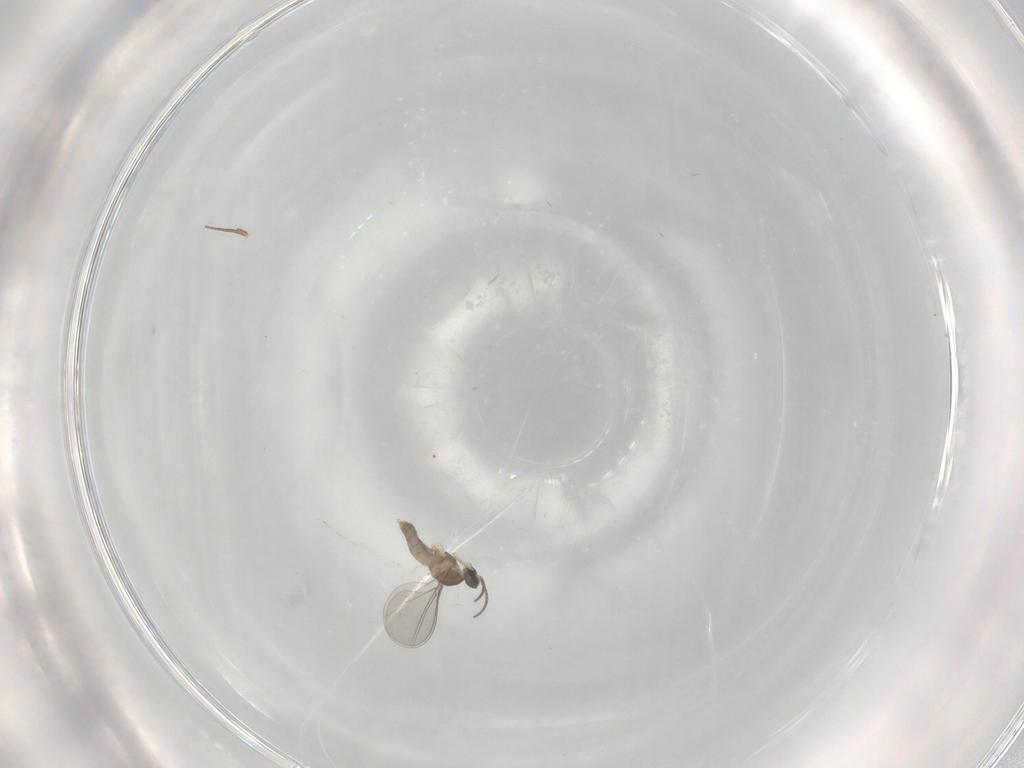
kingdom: Animalia
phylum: Arthropoda
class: Insecta
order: Diptera
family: Cecidomyiidae
